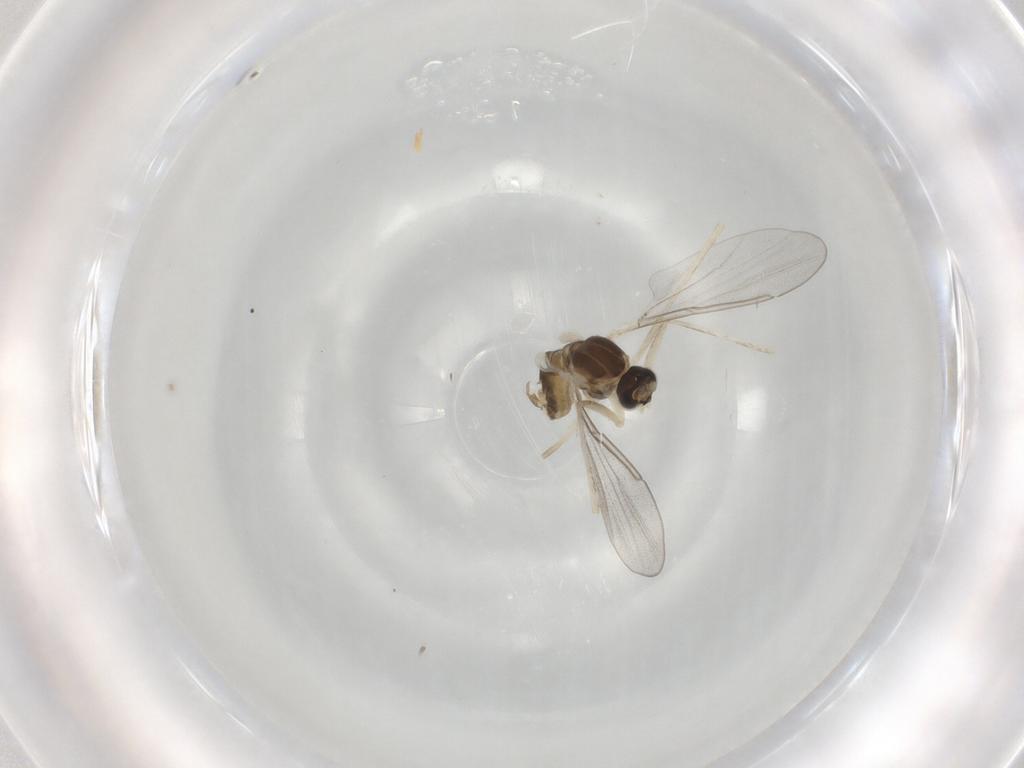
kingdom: Animalia
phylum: Arthropoda
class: Insecta
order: Diptera
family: Cecidomyiidae
